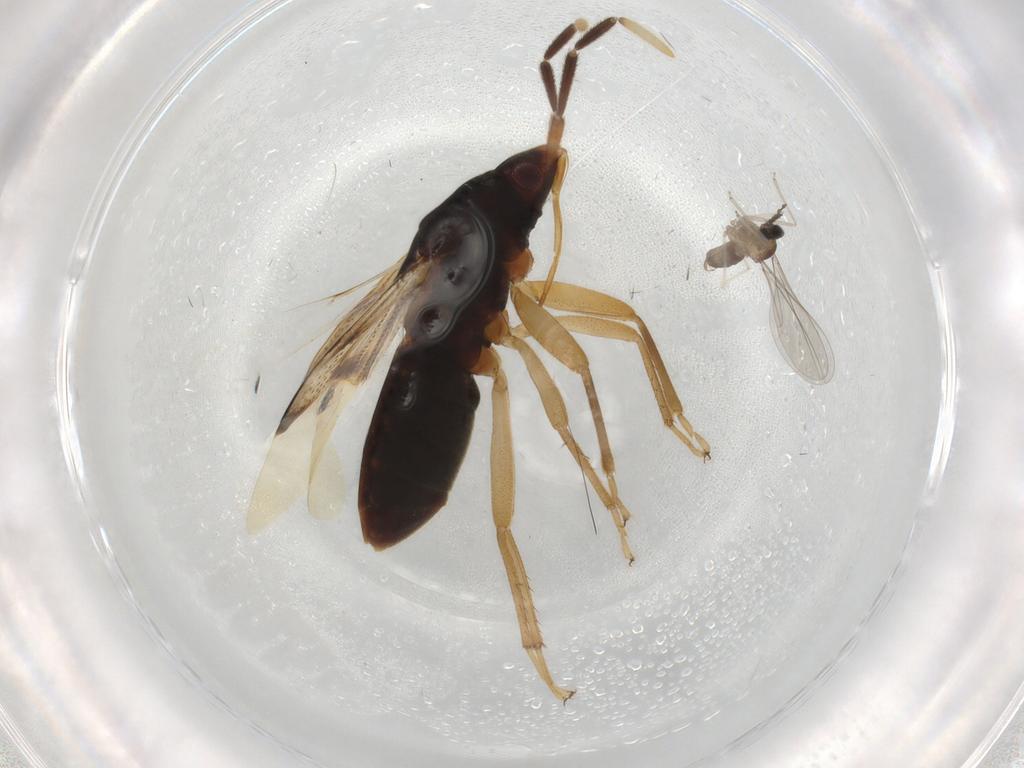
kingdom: Animalia
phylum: Arthropoda
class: Insecta
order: Hemiptera
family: Rhyparochromidae
